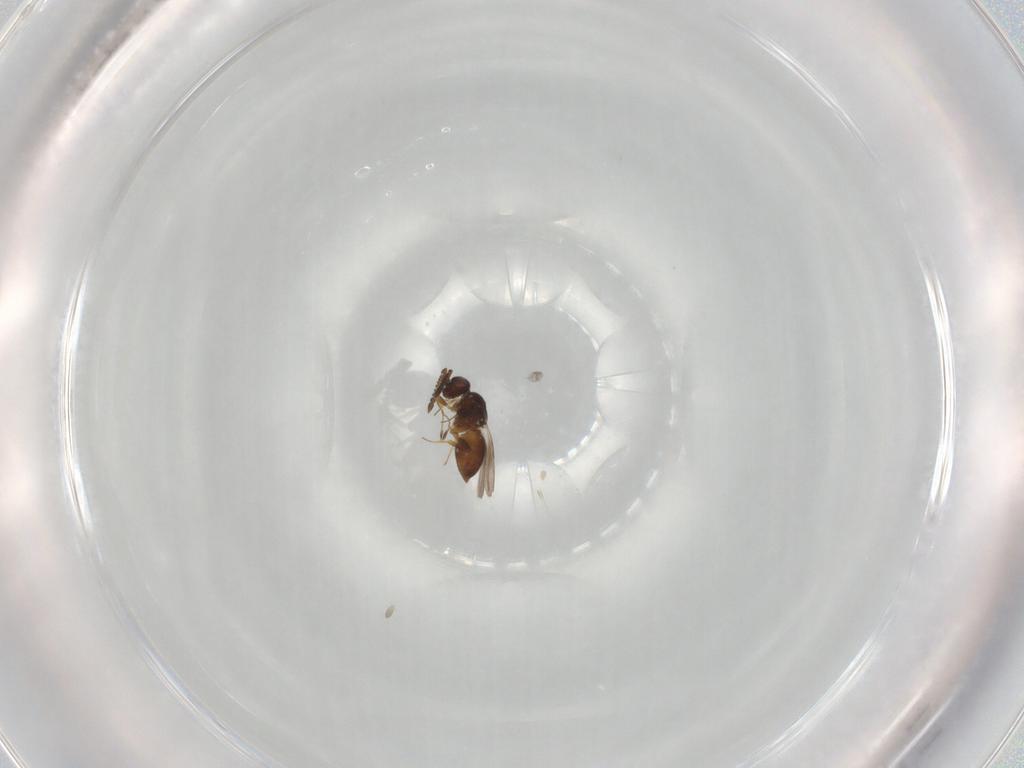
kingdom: Animalia
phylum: Arthropoda
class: Insecta
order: Hymenoptera
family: Ceraphronidae
